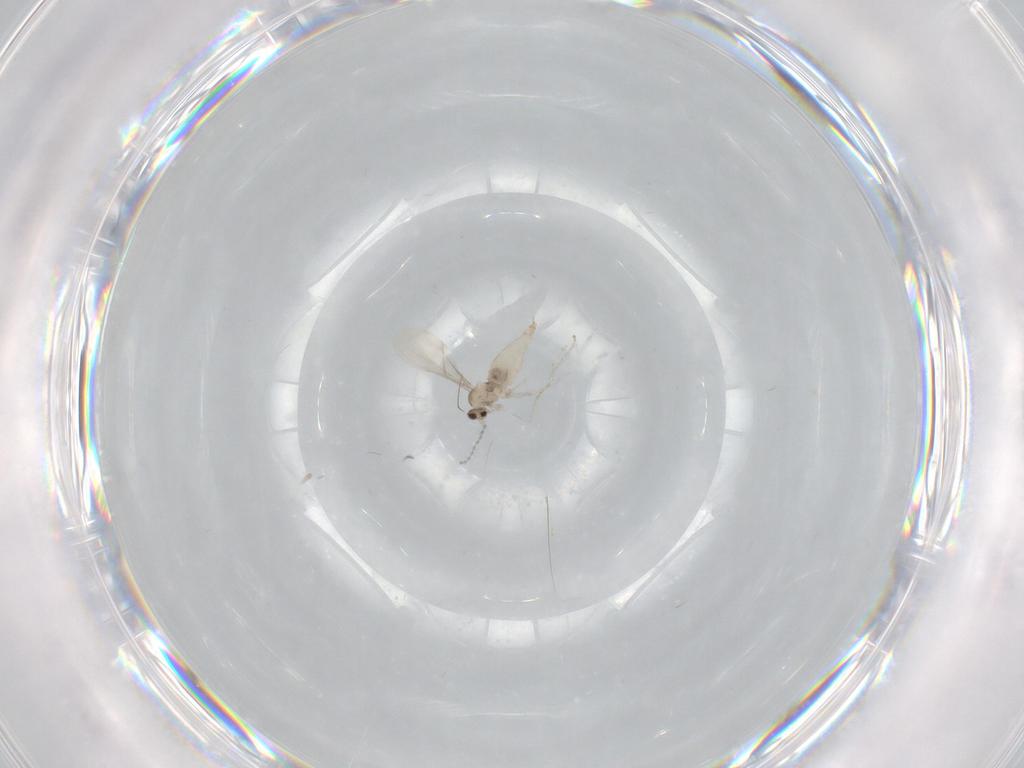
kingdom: Animalia
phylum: Arthropoda
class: Insecta
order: Diptera
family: Cecidomyiidae
